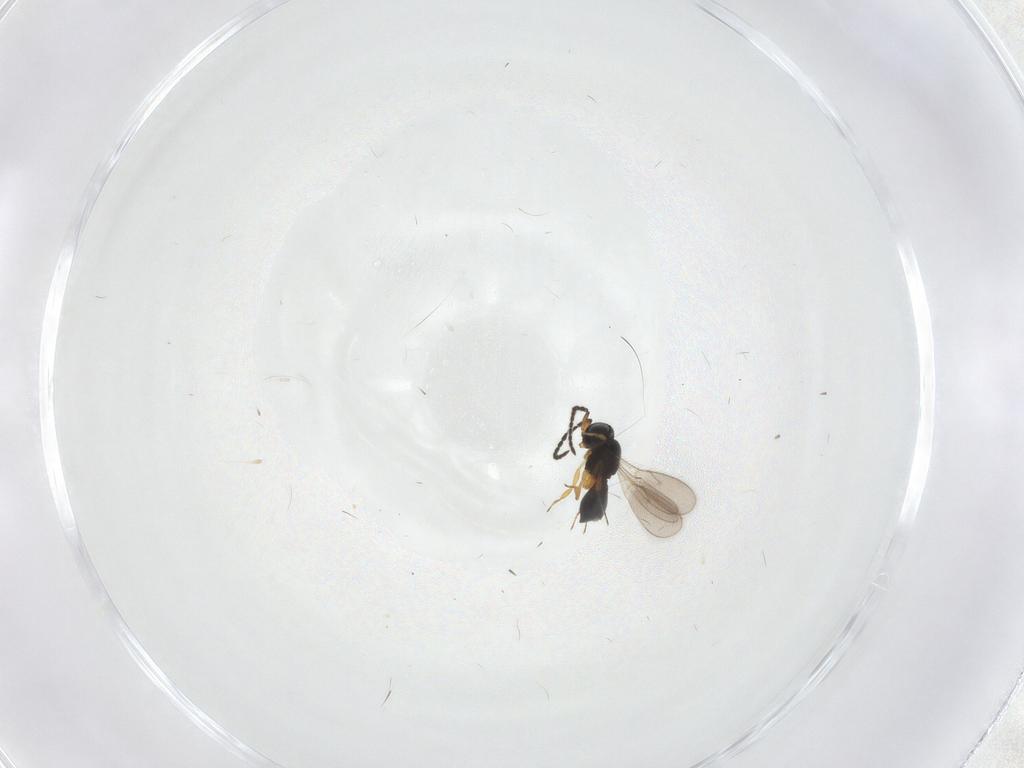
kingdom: Animalia
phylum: Arthropoda
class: Insecta
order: Hymenoptera
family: Scelionidae
